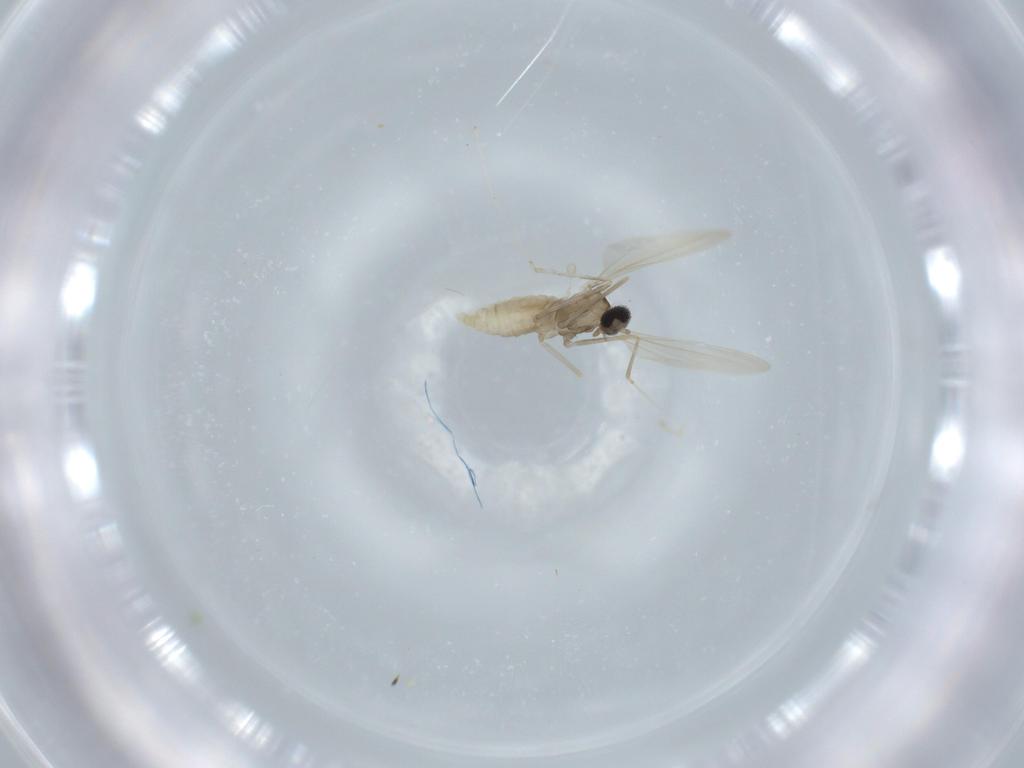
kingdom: Animalia
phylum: Arthropoda
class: Insecta
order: Diptera
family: Cecidomyiidae
